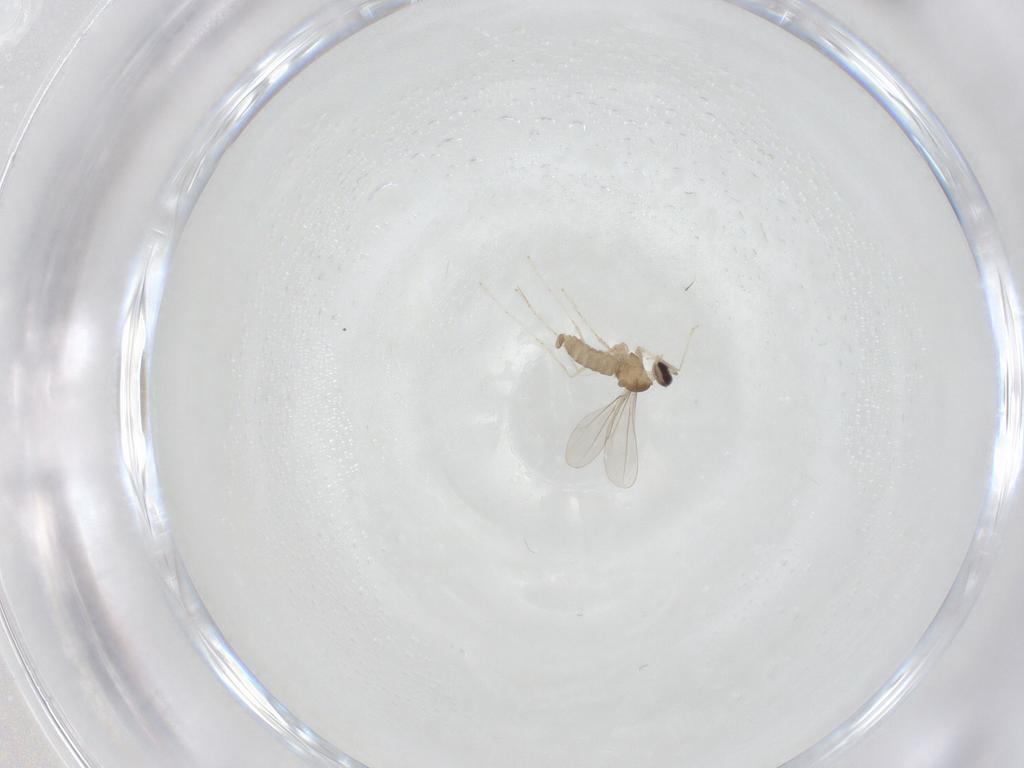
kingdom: Animalia
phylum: Arthropoda
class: Insecta
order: Diptera
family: Cecidomyiidae
